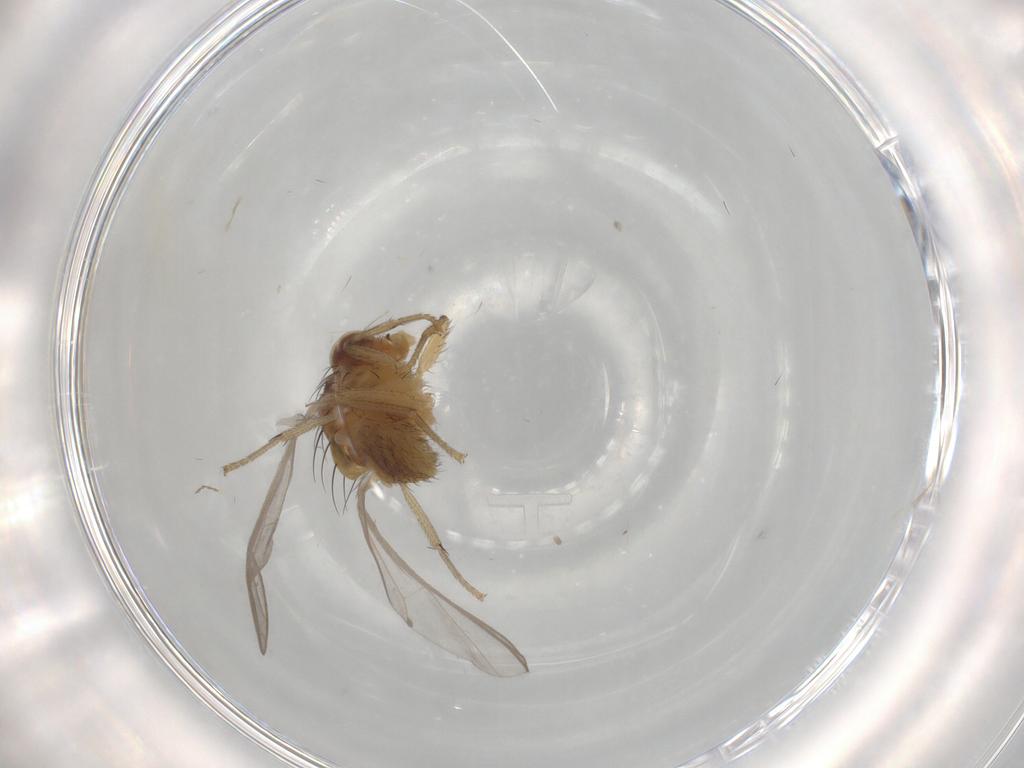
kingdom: Animalia
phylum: Arthropoda
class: Insecta
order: Diptera
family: Chironomidae
